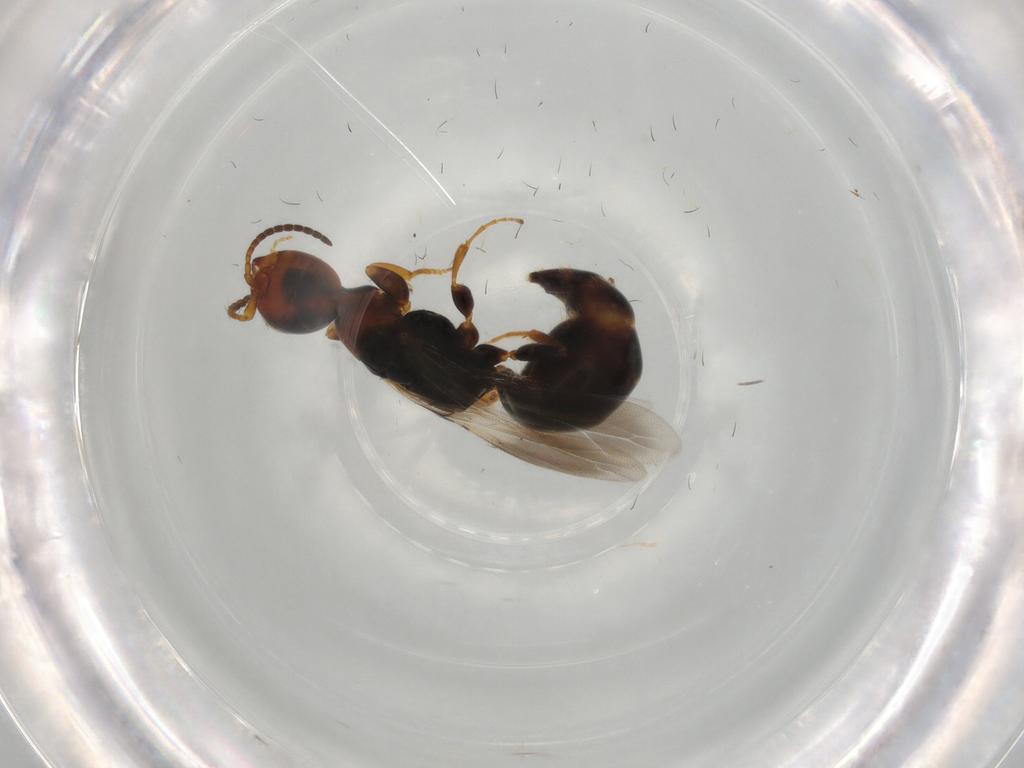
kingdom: Animalia
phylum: Arthropoda
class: Insecta
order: Hymenoptera
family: Bethylidae
